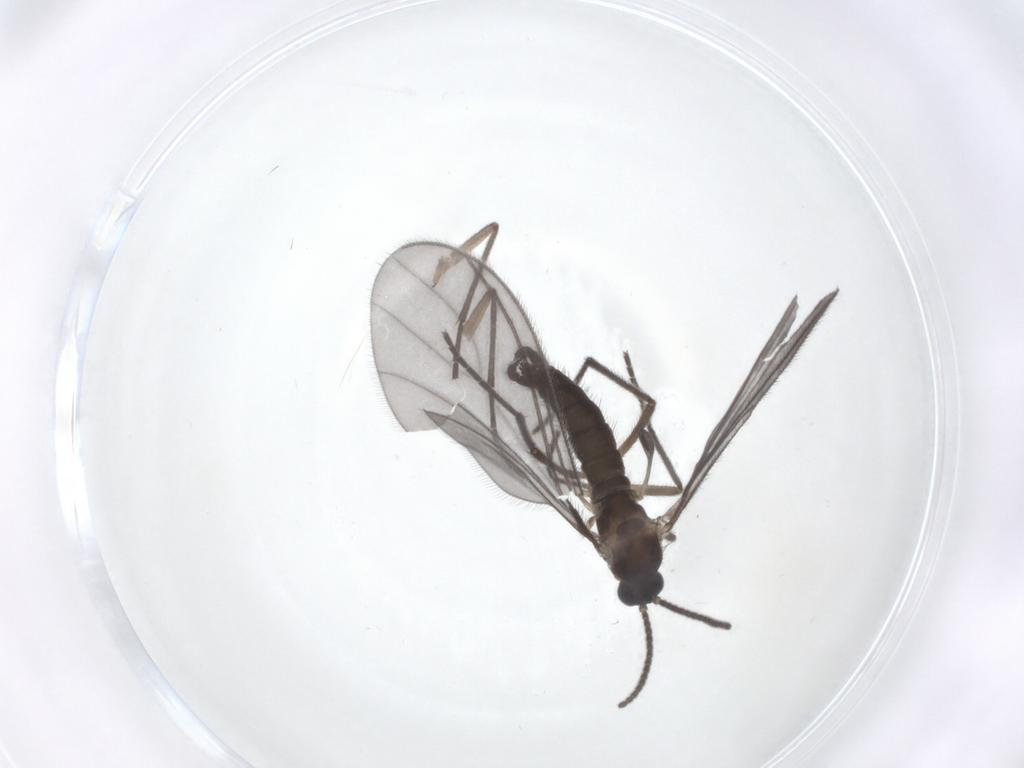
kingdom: Animalia
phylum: Arthropoda
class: Insecta
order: Diptera
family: Sciaridae
